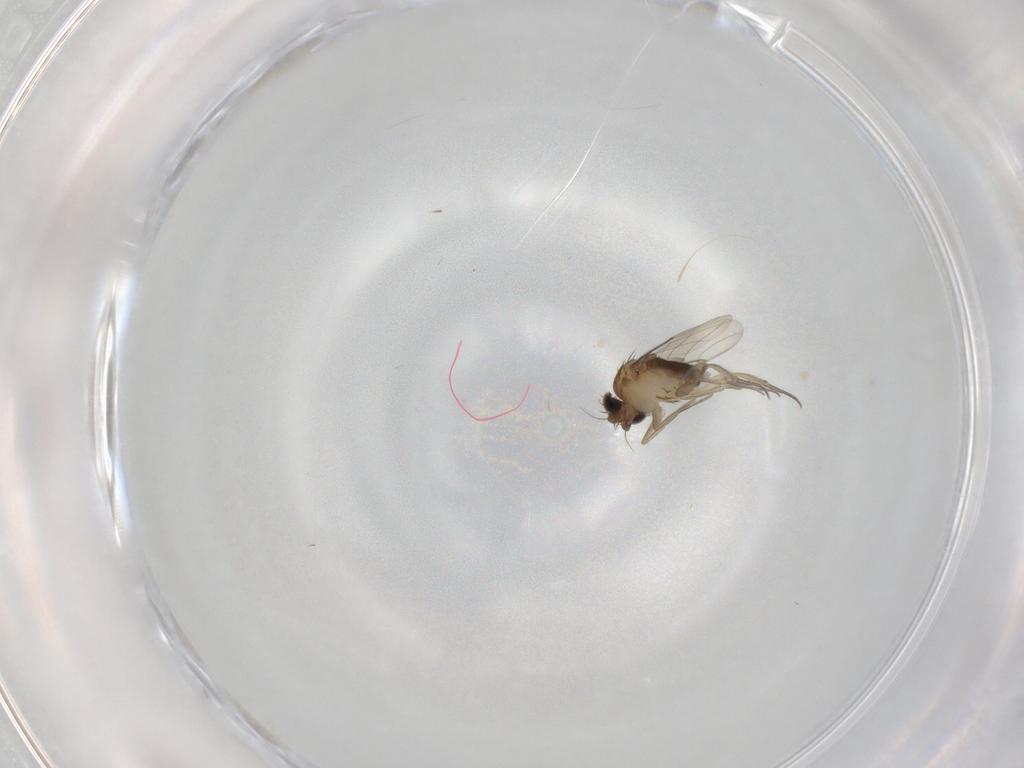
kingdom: Animalia
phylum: Arthropoda
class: Insecta
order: Diptera
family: Phoridae
